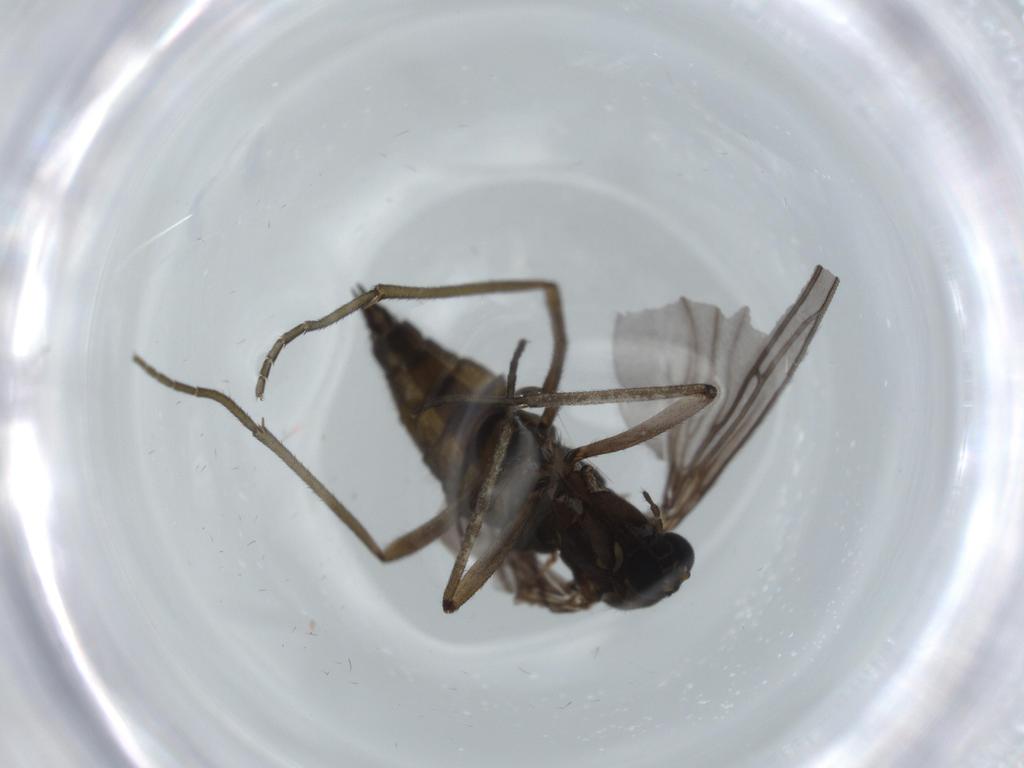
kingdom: Animalia
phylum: Arthropoda
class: Insecta
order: Diptera
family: Sciaridae
